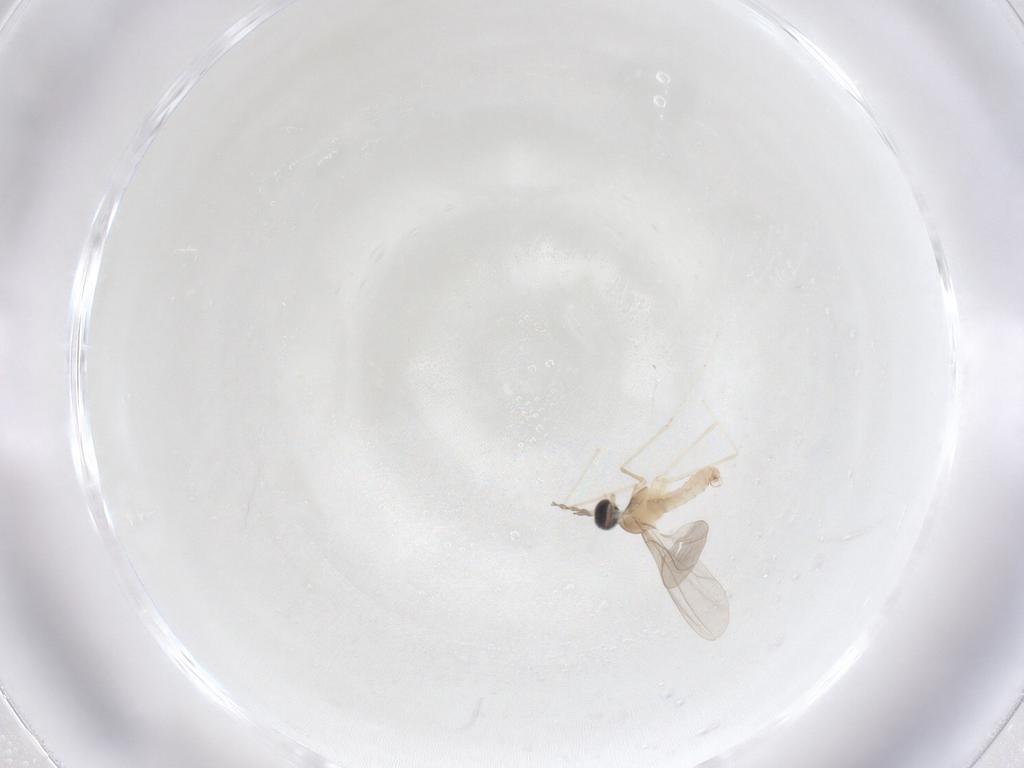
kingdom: Animalia
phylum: Arthropoda
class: Insecta
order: Diptera
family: Cecidomyiidae
